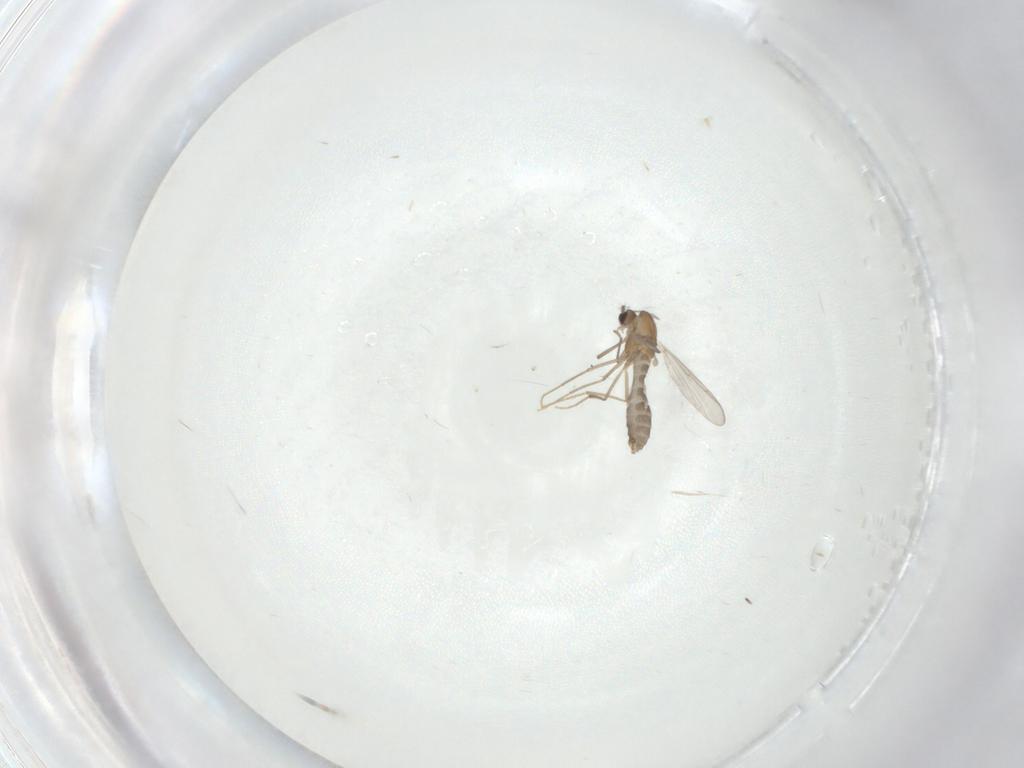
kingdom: Animalia
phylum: Arthropoda
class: Insecta
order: Diptera
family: Chironomidae
